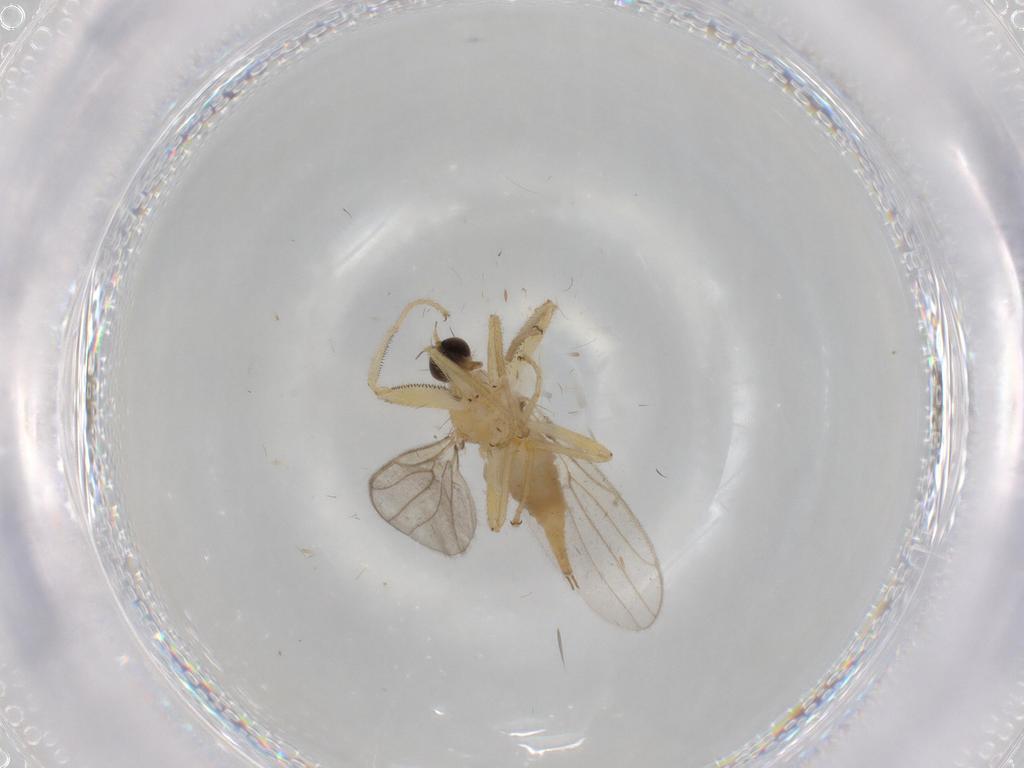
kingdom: Animalia
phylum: Arthropoda
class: Insecta
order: Diptera
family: Hybotidae
